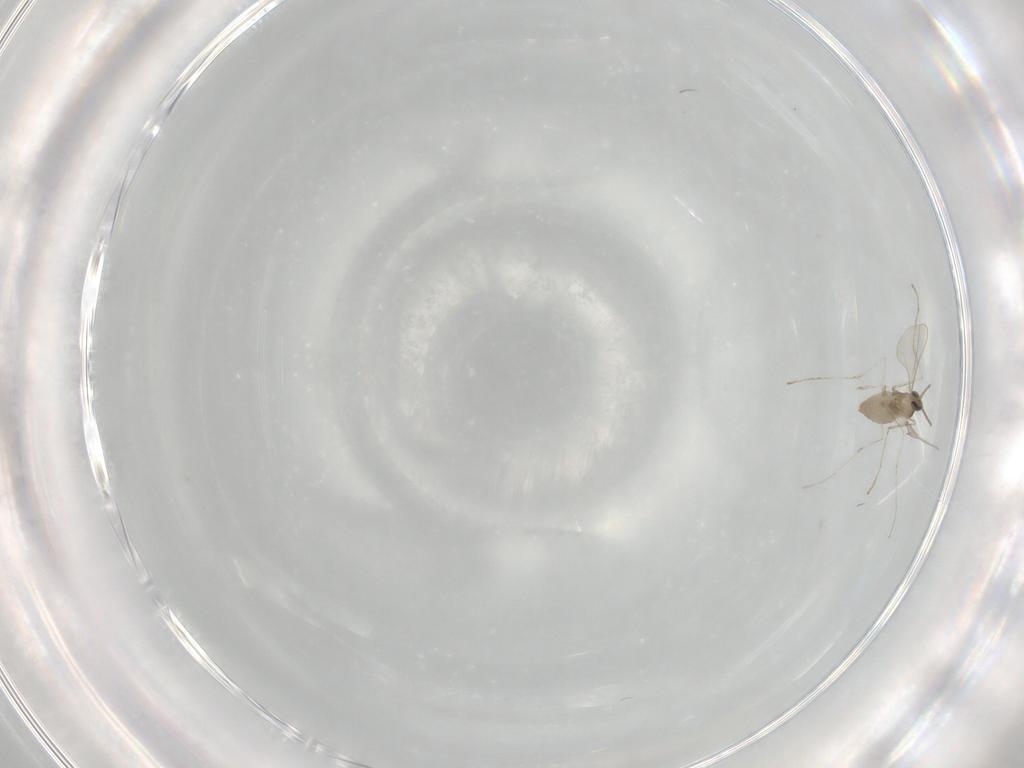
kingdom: Animalia
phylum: Arthropoda
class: Insecta
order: Diptera
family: Cecidomyiidae
